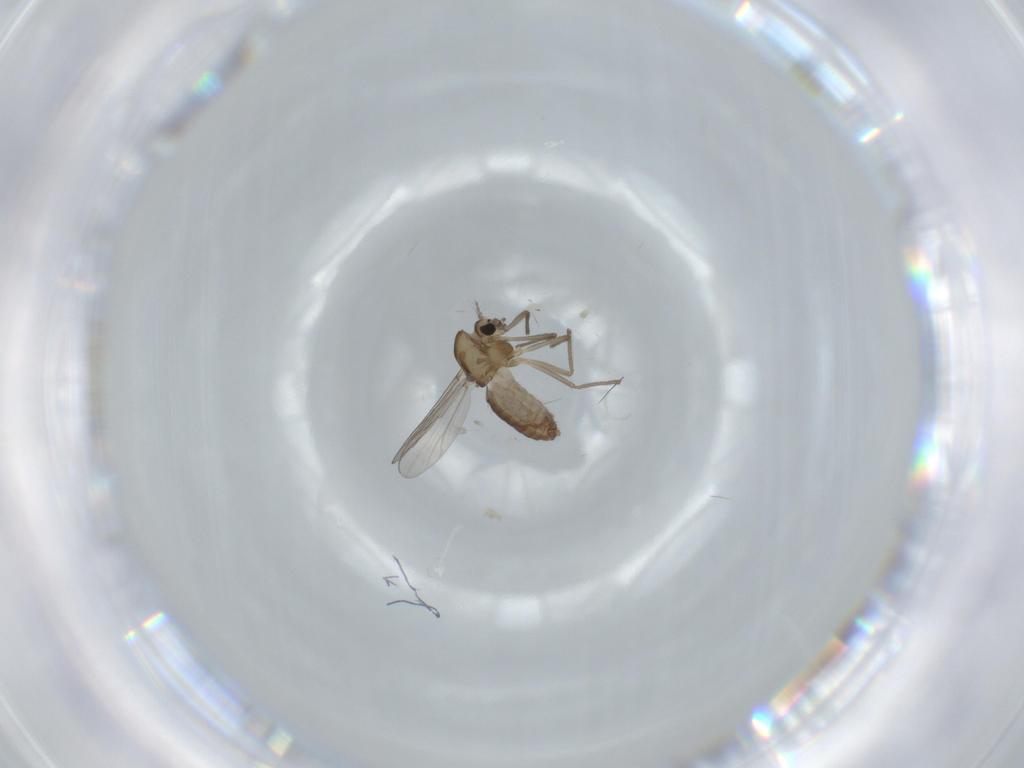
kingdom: Animalia
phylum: Arthropoda
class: Insecta
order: Diptera
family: Chironomidae
